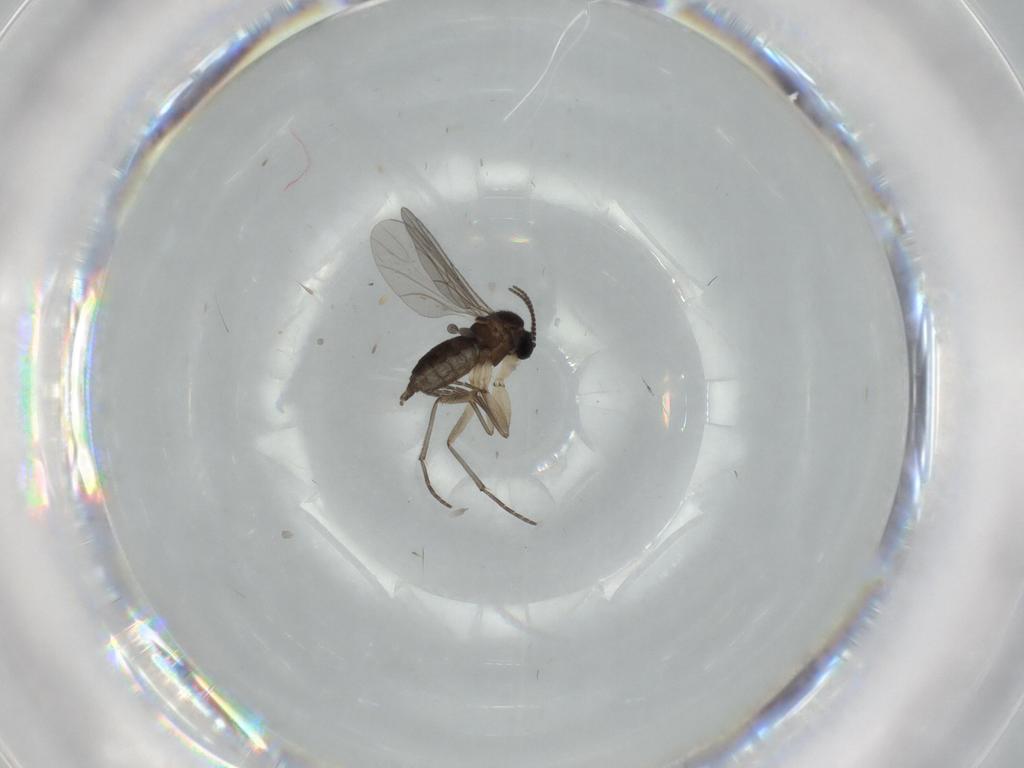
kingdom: Animalia
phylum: Arthropoda
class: Insecta
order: Diptera
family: Sciaridae
